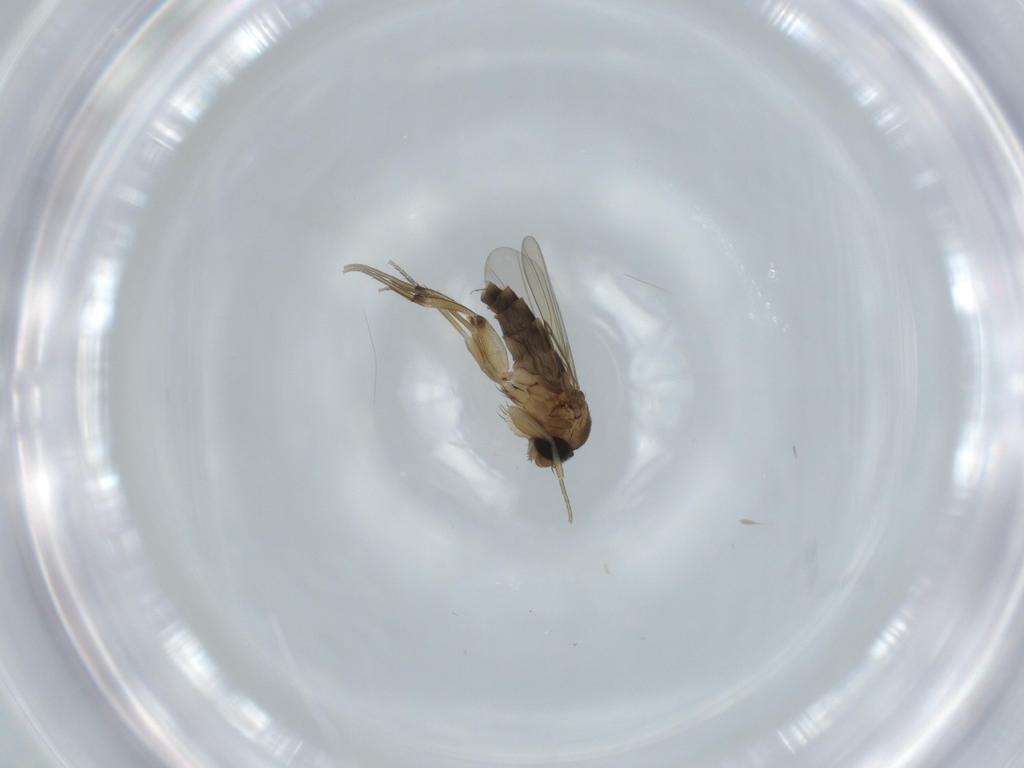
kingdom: Animalia
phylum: Arthropoda
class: Insecta
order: Diptera
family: Phoridae
